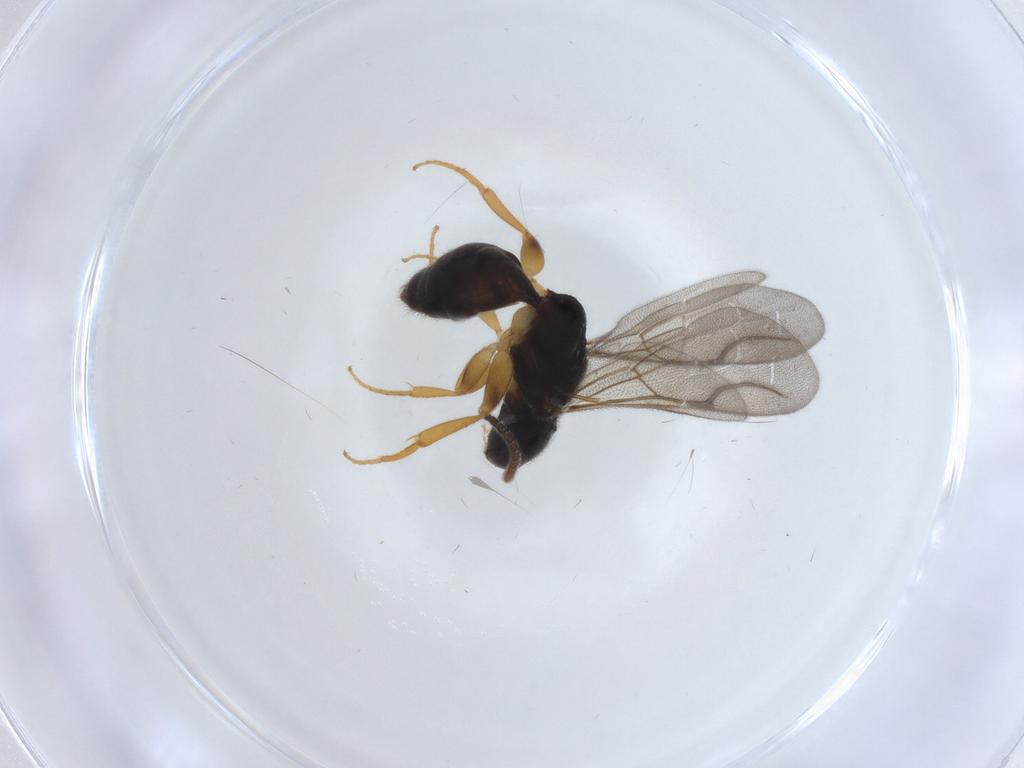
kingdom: Animalia
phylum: Arthropoda
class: Insecta
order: Hymenoptera
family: Bethylidae
